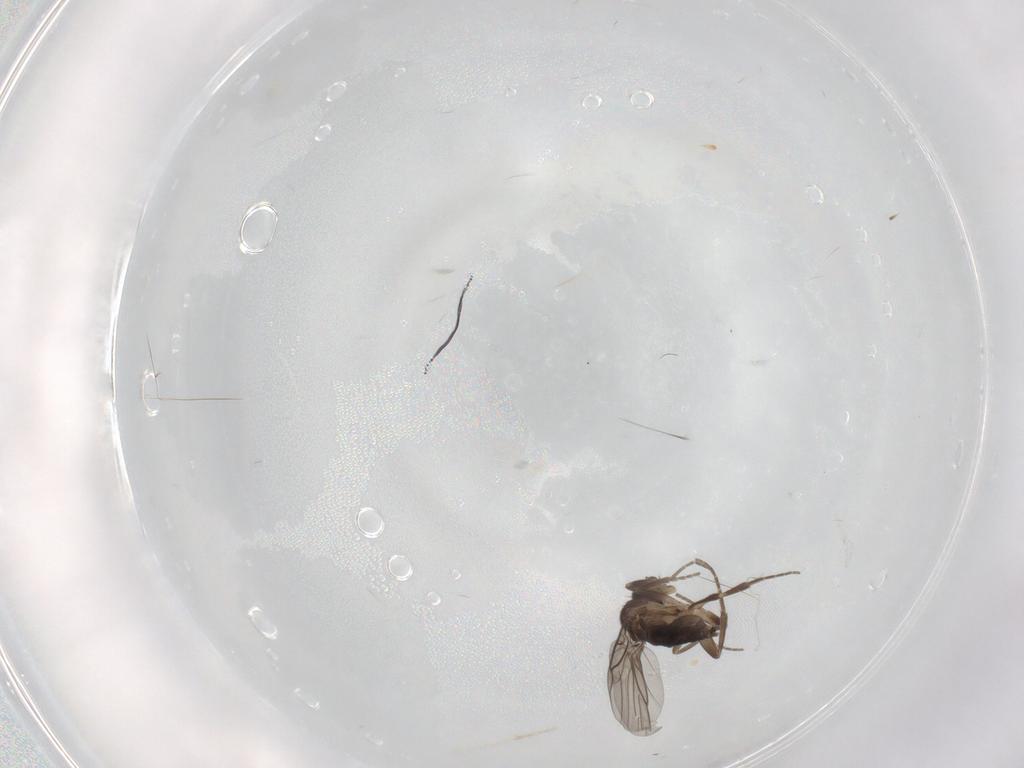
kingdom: Animalia
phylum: Arthropoda
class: Insecta
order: Diptera
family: Phoridae
